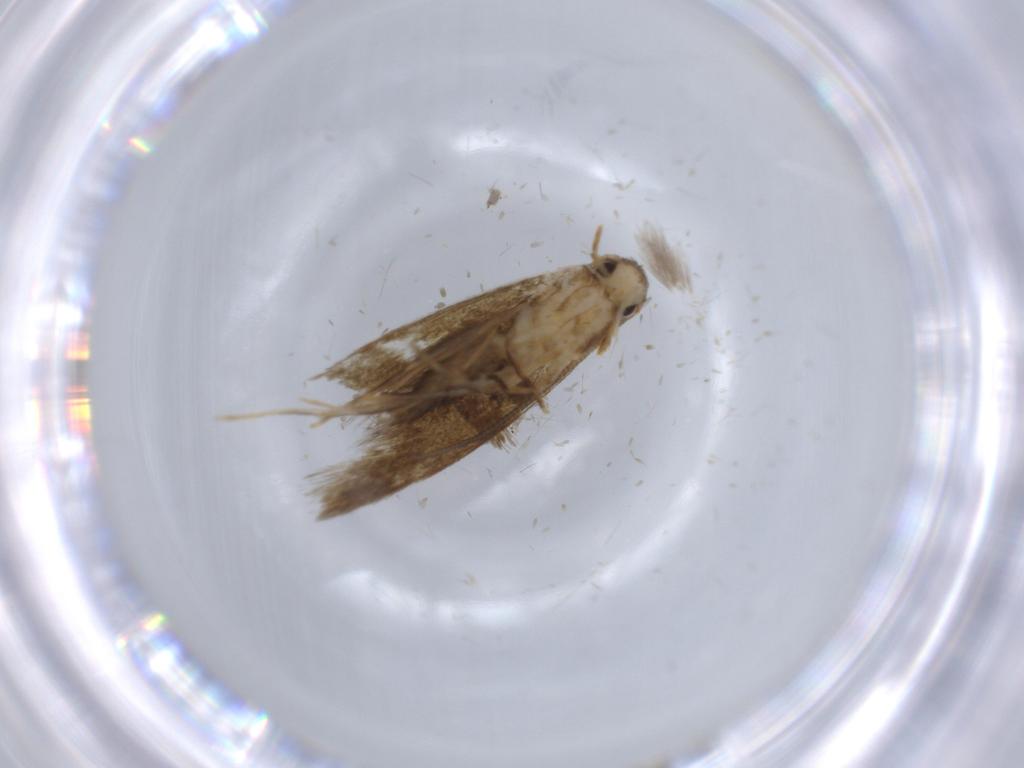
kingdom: Animalia
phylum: Arthropoda
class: Insecta
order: Lepidoptera
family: Tineidae
